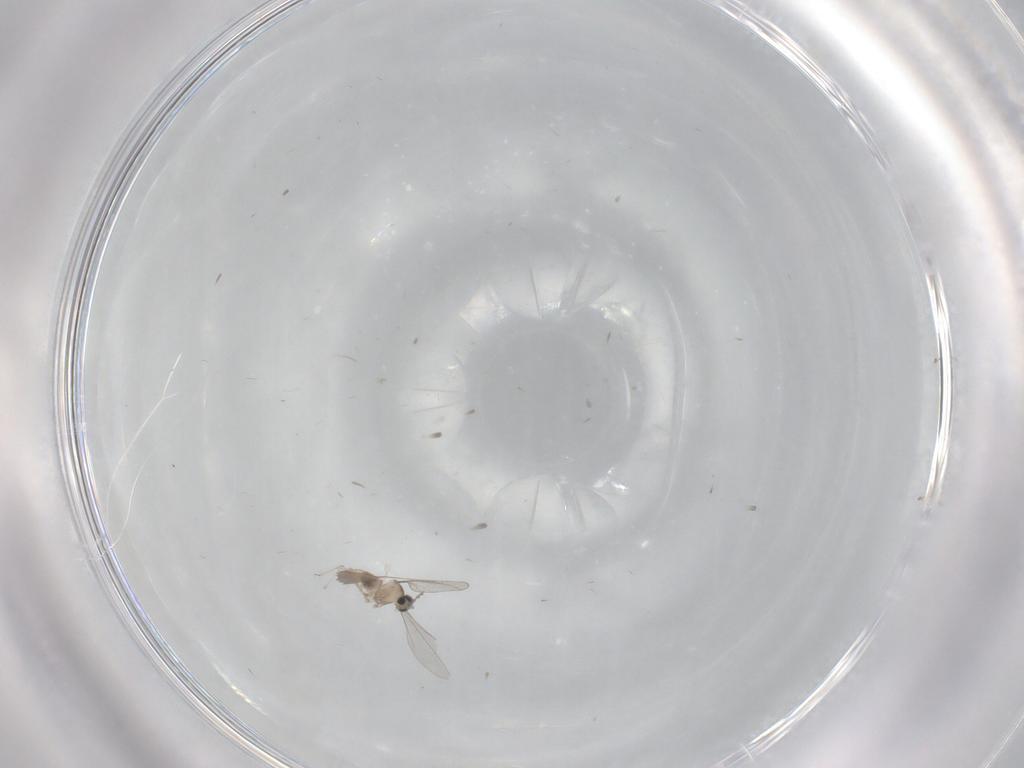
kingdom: Animalia
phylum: Arthropoda
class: Insecta
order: Diptera
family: Cecidomyiidae
